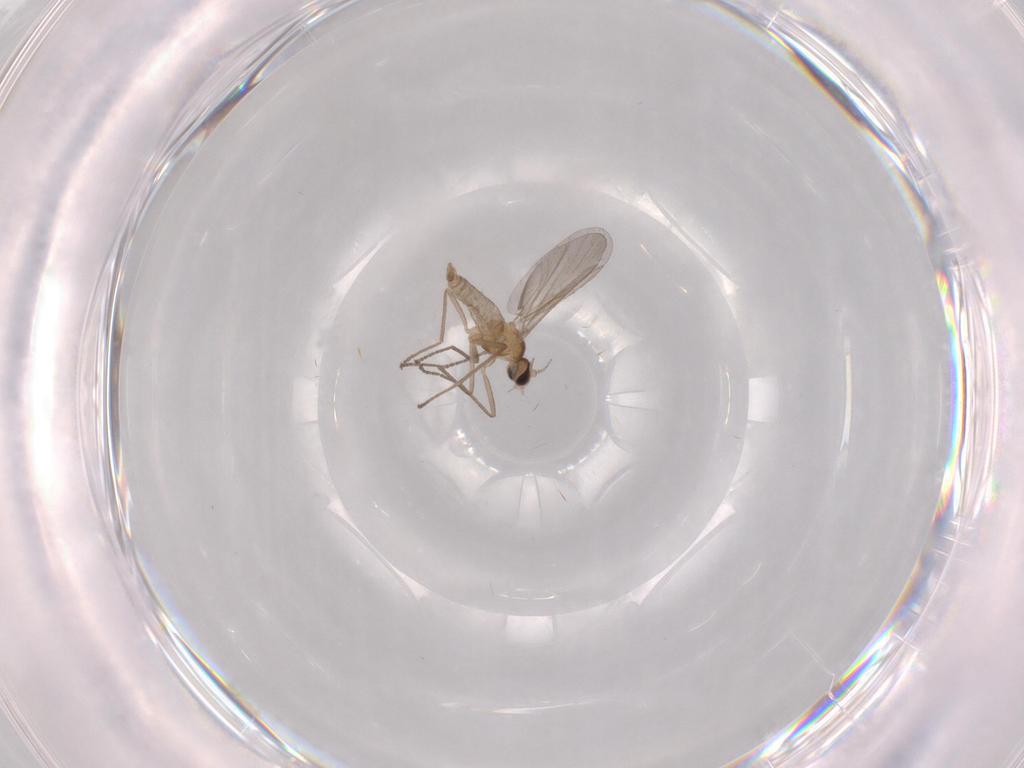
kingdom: Animalia
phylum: Arthropoda
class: Insecta
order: Diptera
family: Cecidomyiidae
